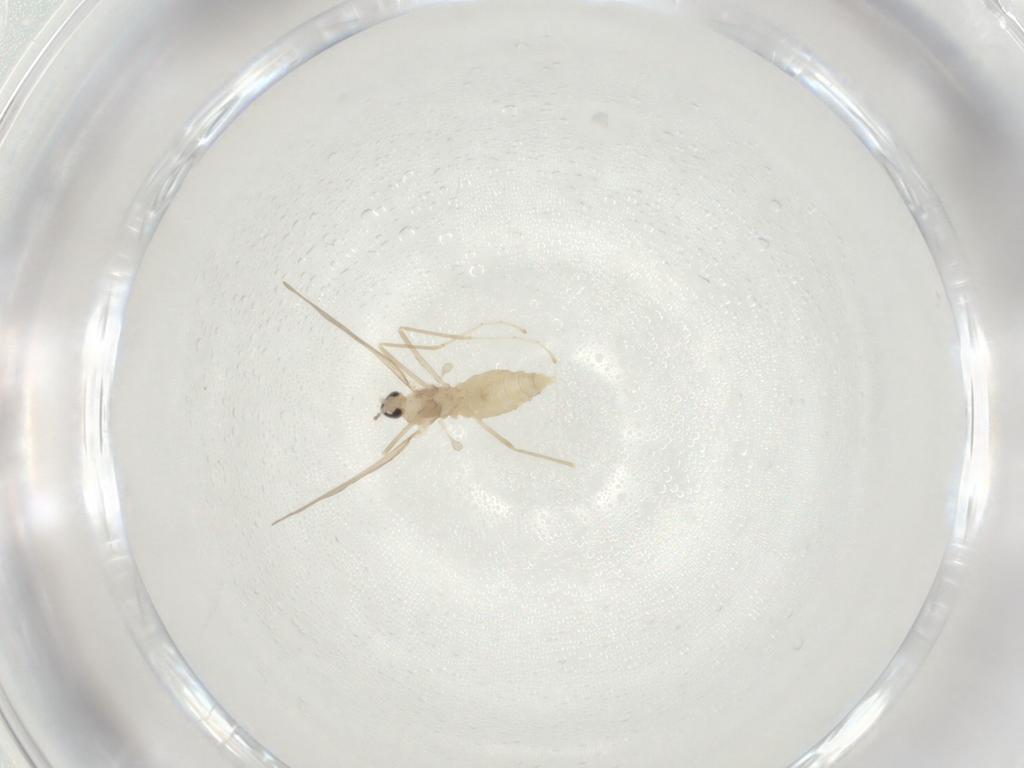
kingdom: Animalia
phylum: Arthropoda
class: Insecta
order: Diptera
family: Cecidomyiidae
